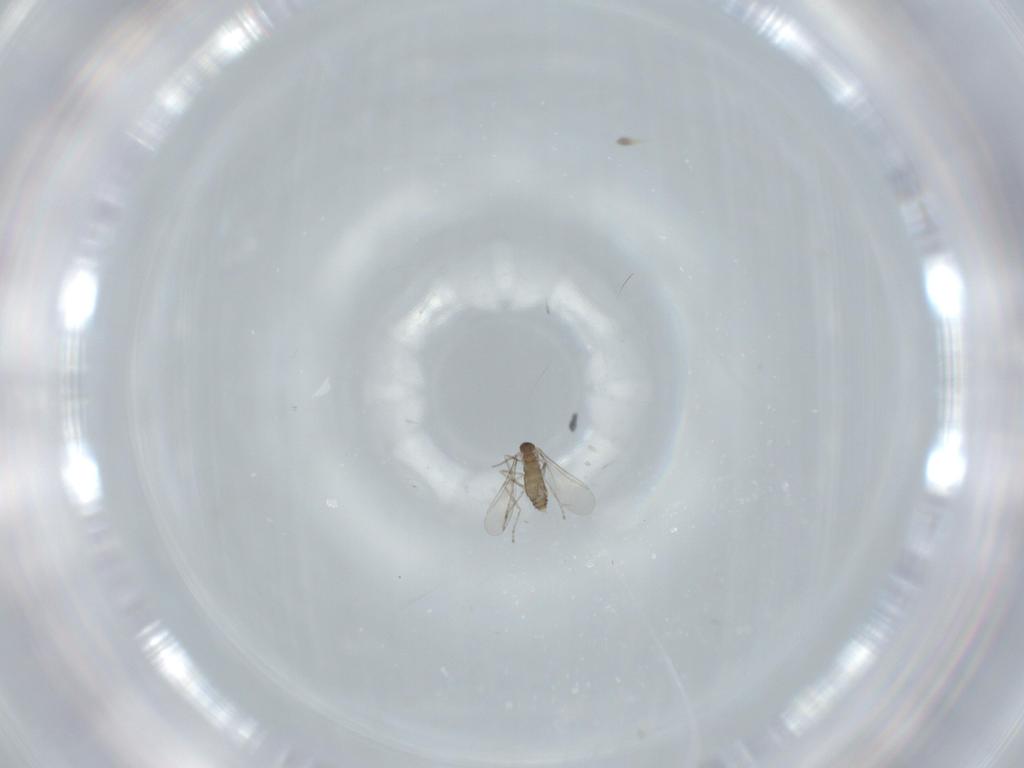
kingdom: Animalia
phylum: Arthropoda
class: Insecta
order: Diptera
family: Cecidomyiidae
